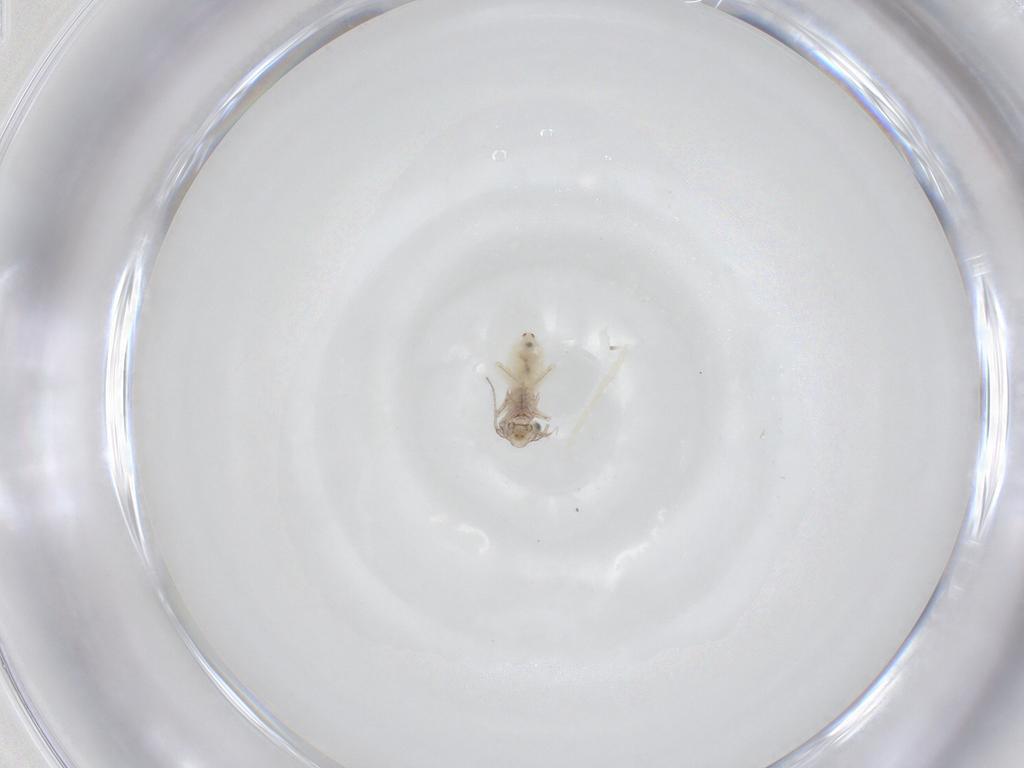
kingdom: Animalia
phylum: Arthropoda
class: Insecta
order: Psocodea
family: Lepidopsocidae
